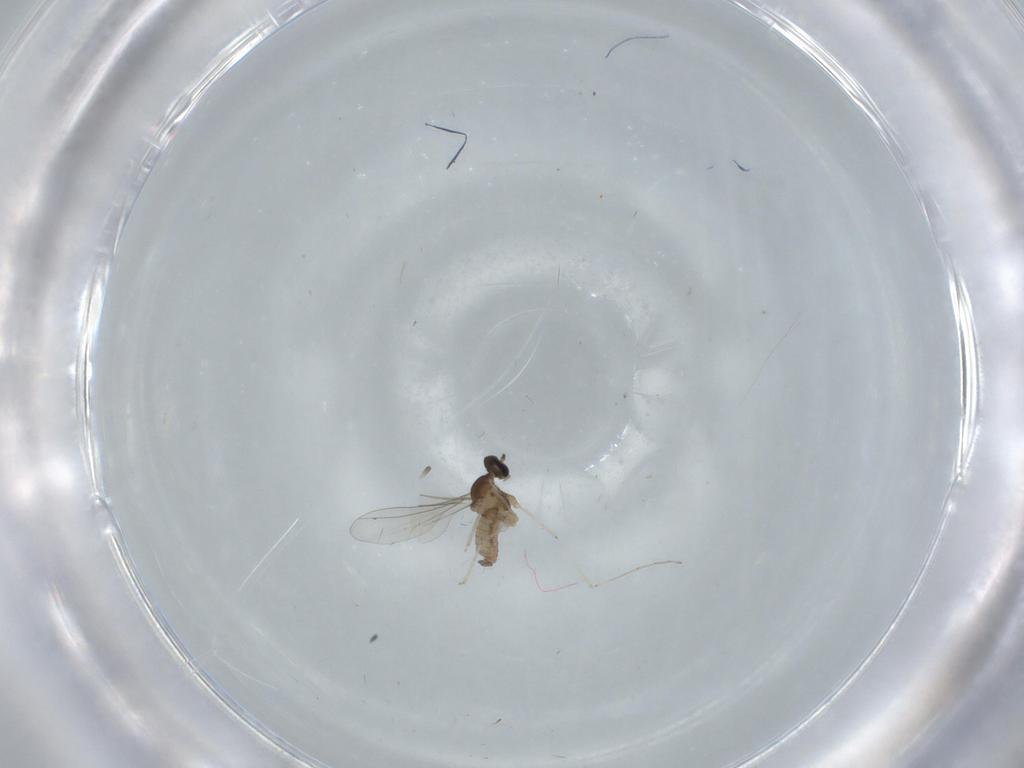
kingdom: Animalia
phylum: Arthropoda
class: Insecta
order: Diptera
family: Cecidomyiidae
